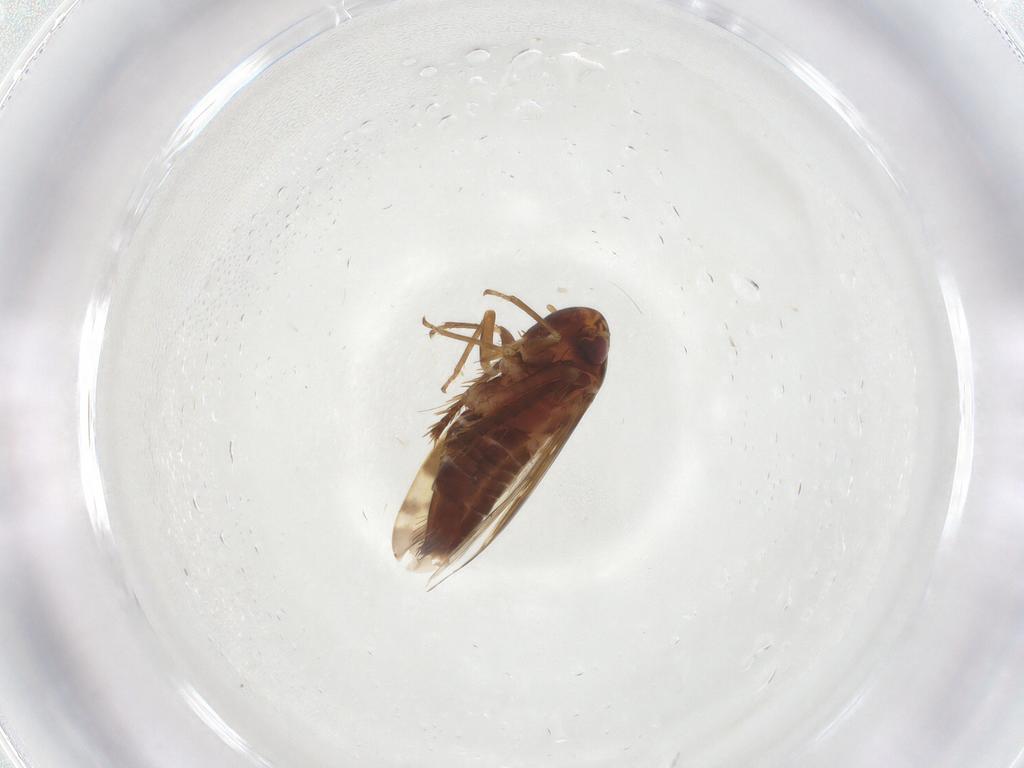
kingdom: Animalia
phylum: Arthropoda
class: Insecta
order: Hemiptera
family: Cicadellidae
